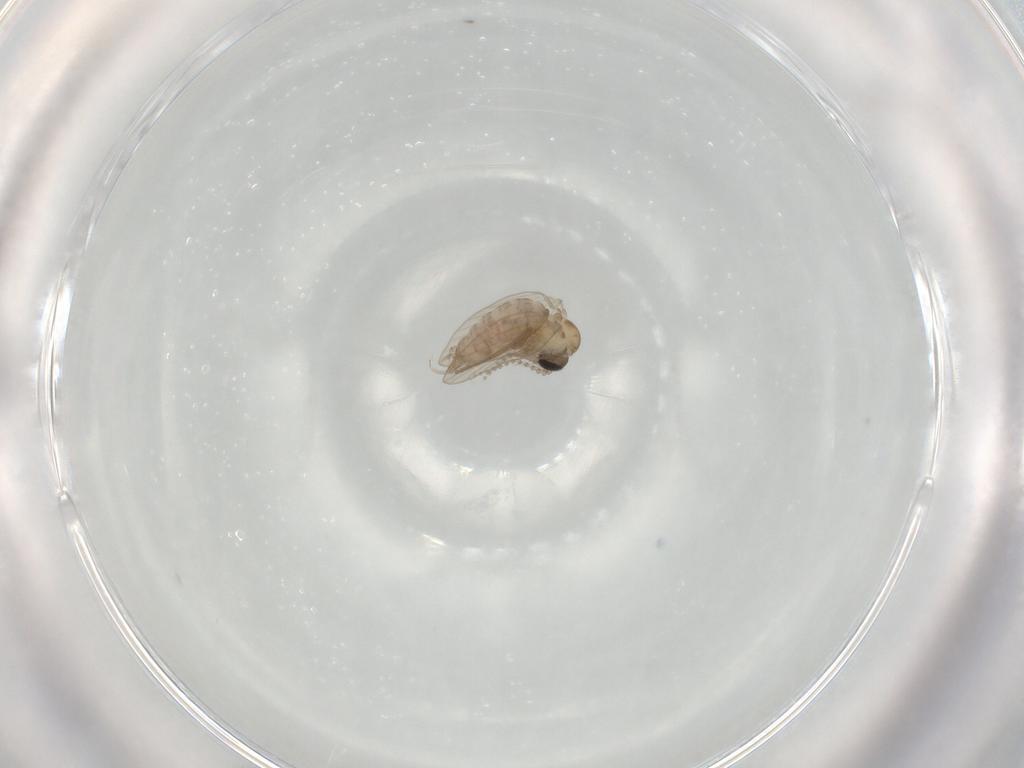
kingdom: Animalia
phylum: Arthropoda
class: Insecta
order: Diptera
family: Psychodidae
